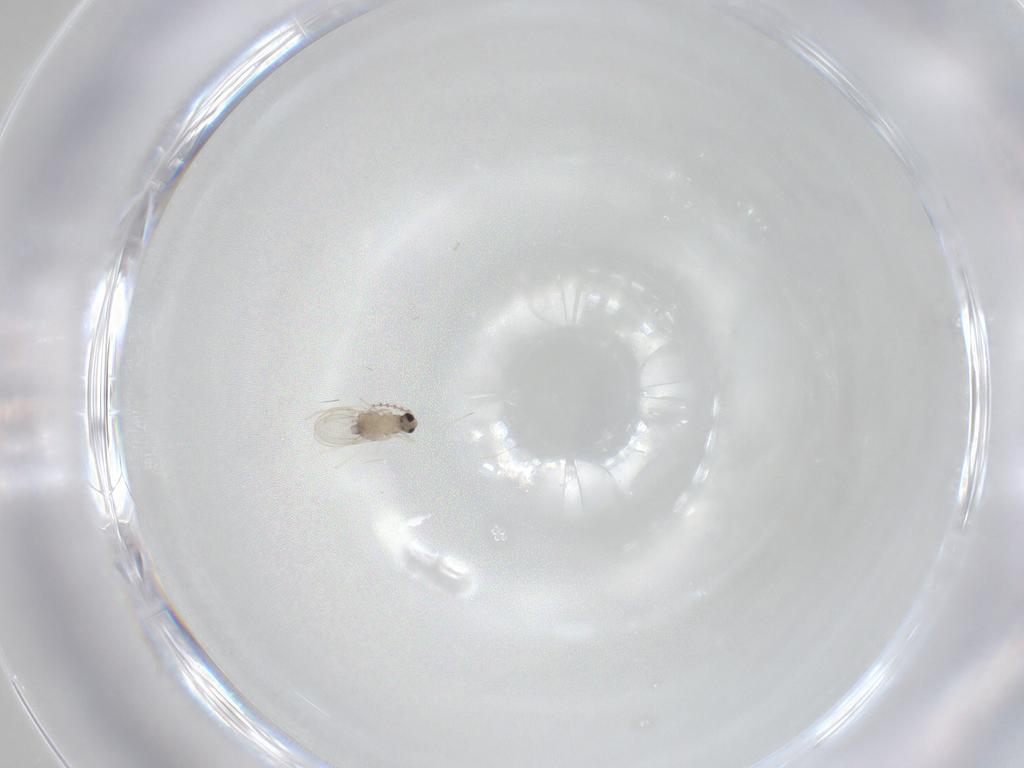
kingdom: Animalia
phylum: Arthropoda
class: Insecta
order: Diptera
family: Cecidomyiidae
